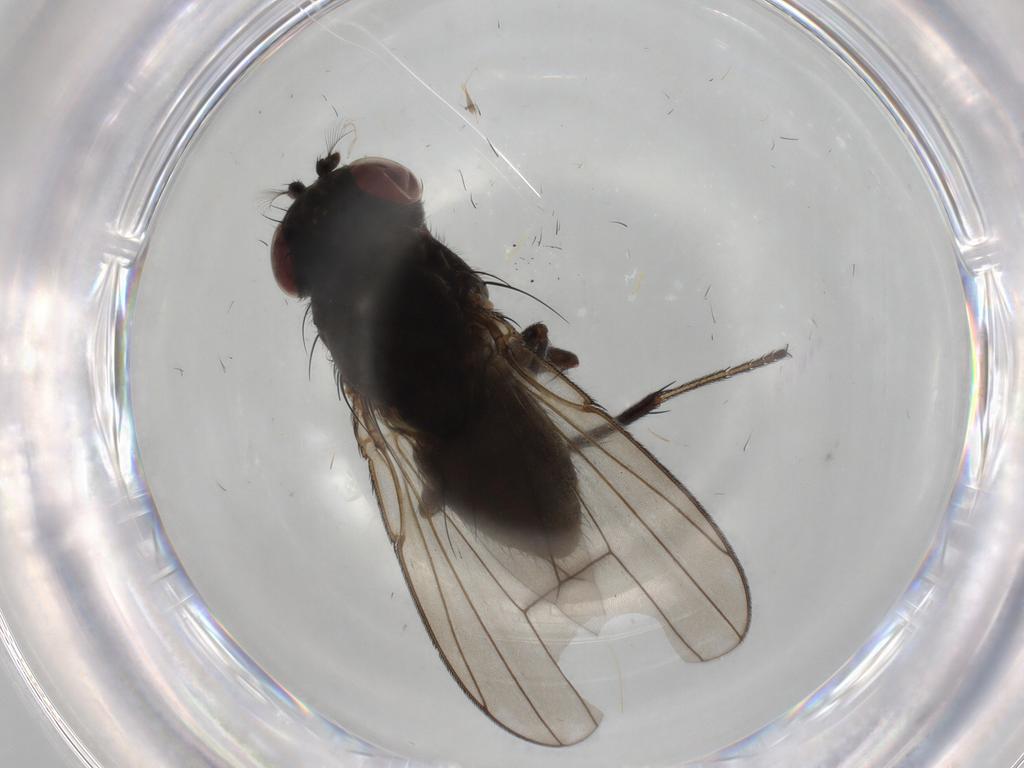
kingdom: Animalia
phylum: Arthropoda
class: Insecta
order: Diptera
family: Ephydridae
